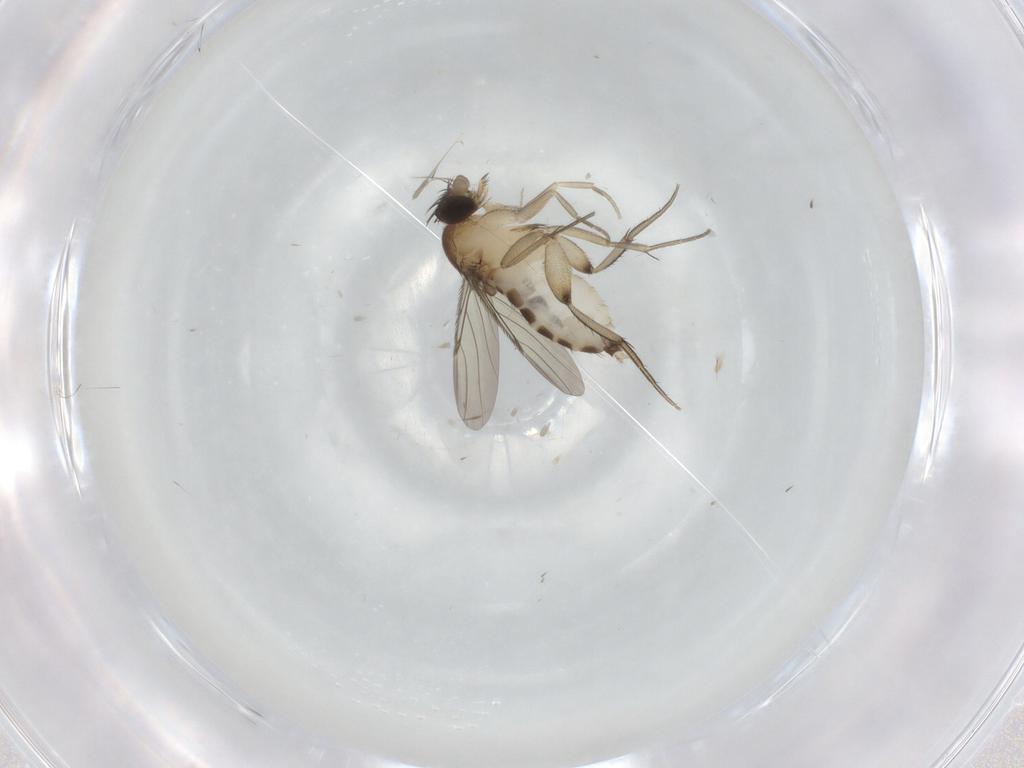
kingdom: Animalia
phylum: Arthropoda
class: Insecta
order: Diptera
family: Phoridae
